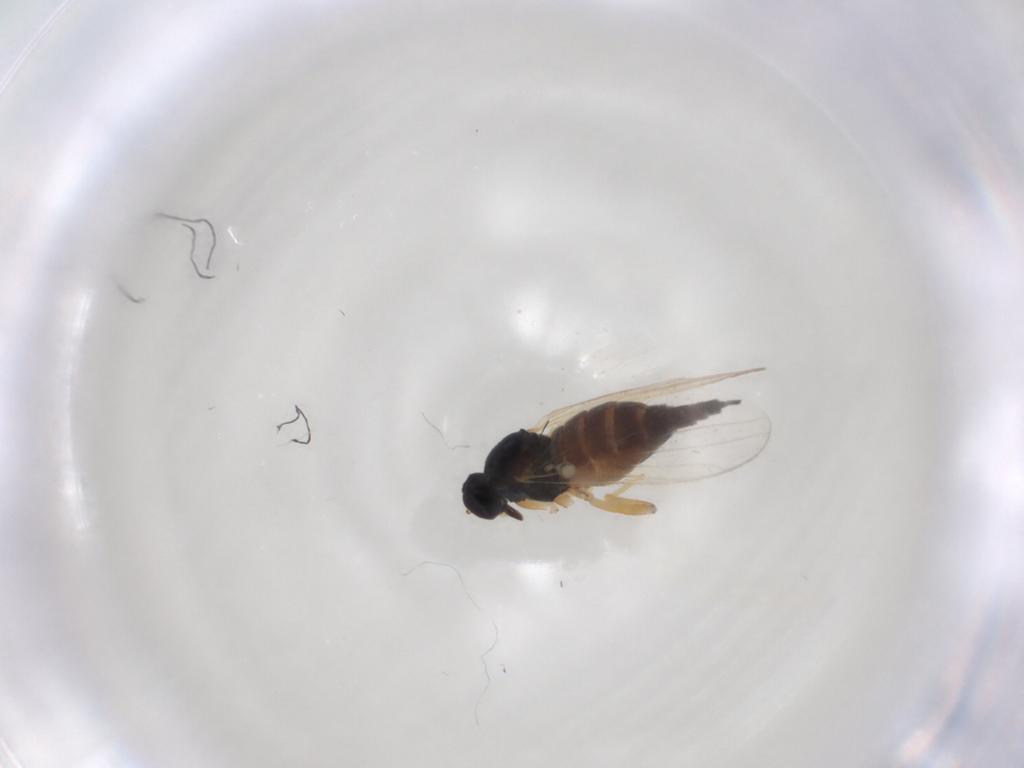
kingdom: Animalia
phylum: Arthropoda
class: Insecta
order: Diptera
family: Hybotidae
